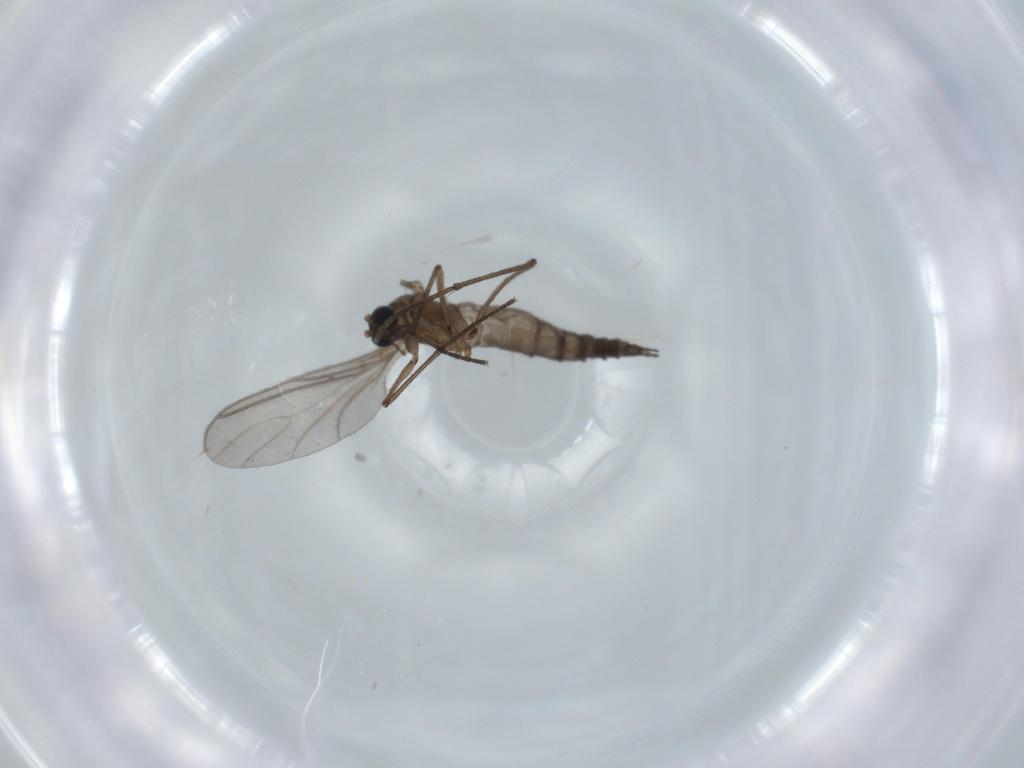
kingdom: Animalia
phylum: Arthropoda
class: Insecta
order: Diptera
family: Sciaridae
